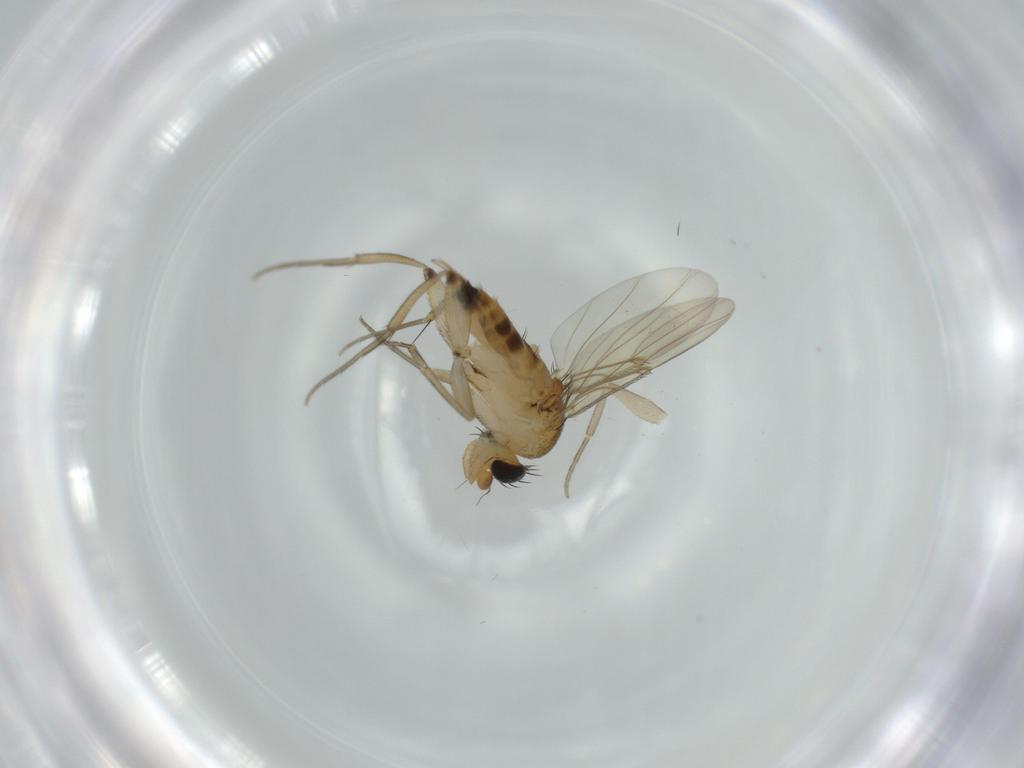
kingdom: Animalia
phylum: Arthropoda
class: Insecta
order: Diptera
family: Phoridae
